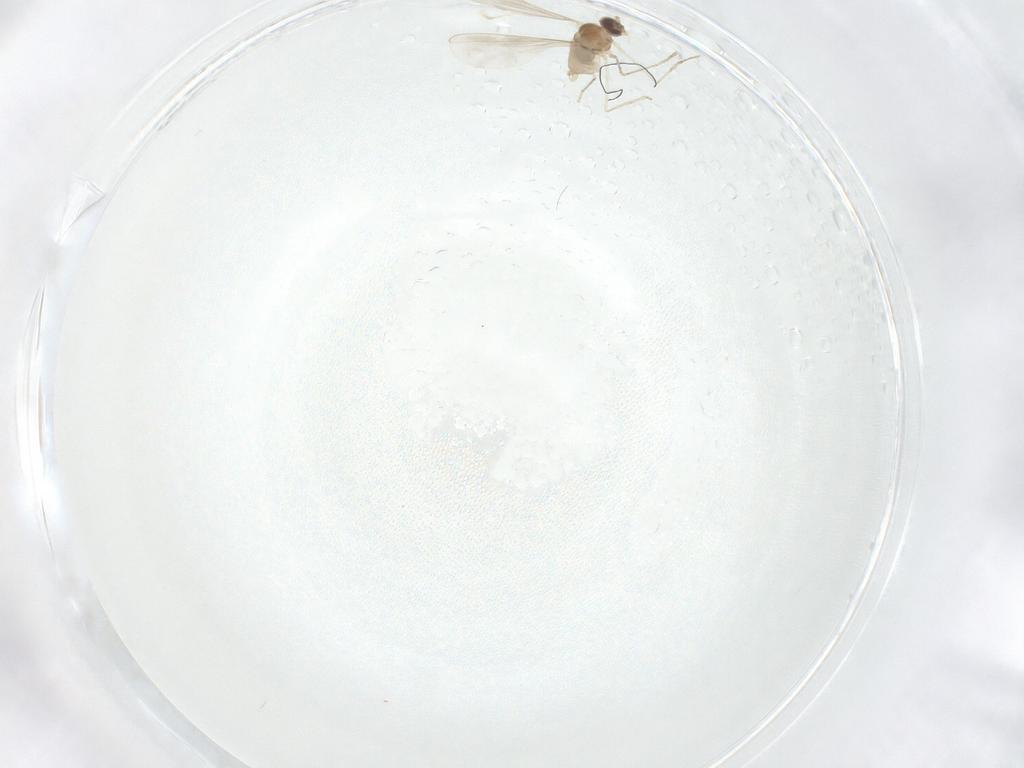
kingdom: Animalia
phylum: Arthropoda
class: Insecta
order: Diptera
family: Cecidomyiidae
